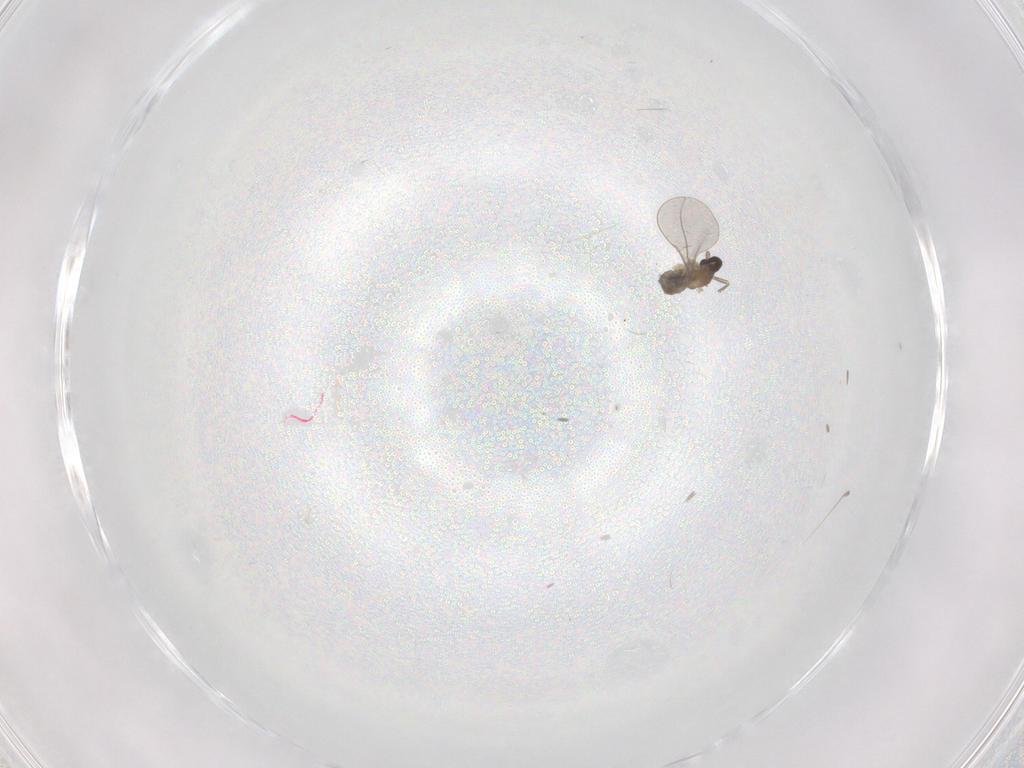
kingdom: Animalia
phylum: Arthropoda
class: Insecta
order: Diptera
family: Cecidomyiidae
